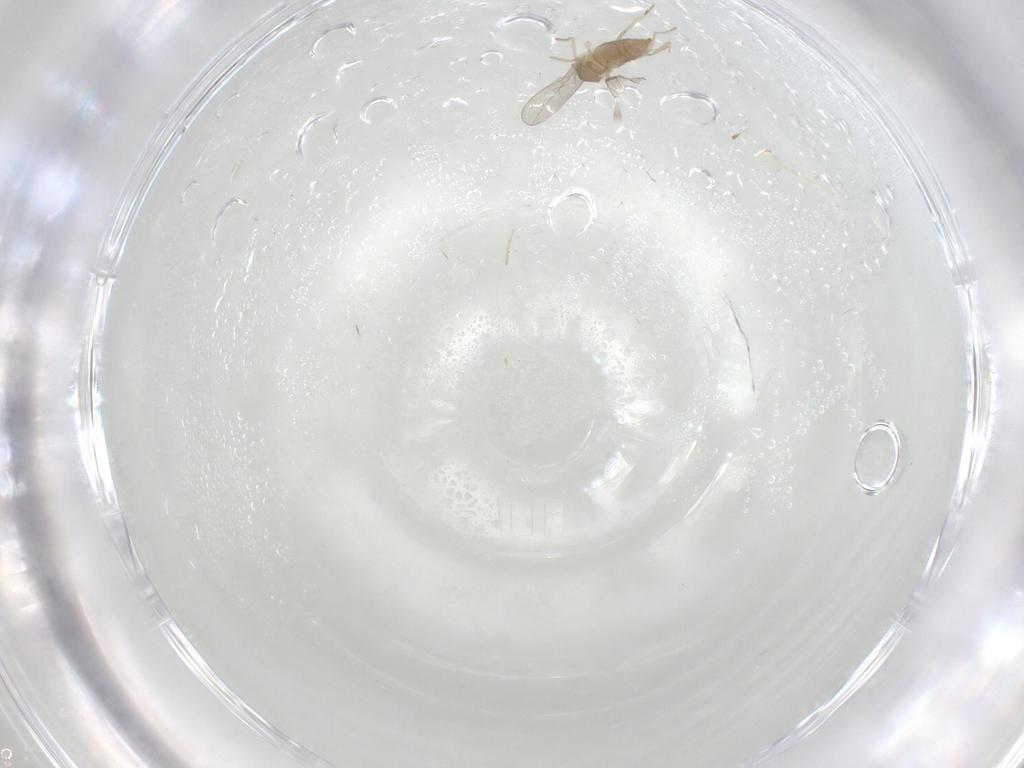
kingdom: Animalia
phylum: Arthropoda
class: Insecta
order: Diptera
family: Cecidomyiidae
